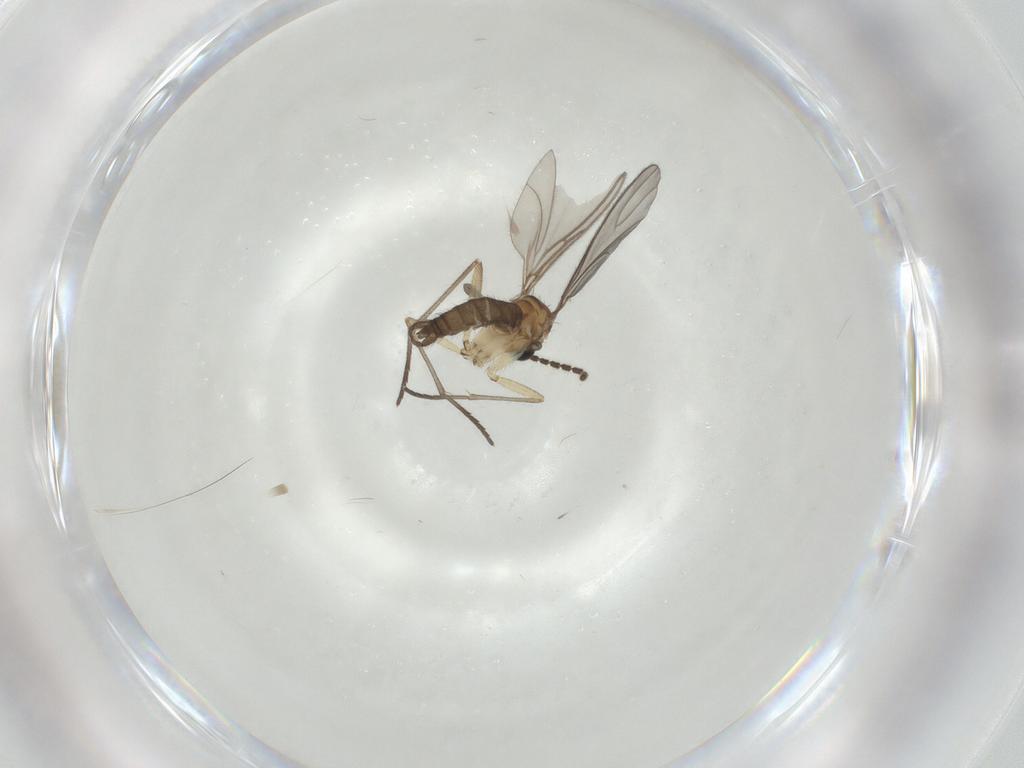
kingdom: Animalia
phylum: Arthropoda
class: Insecta
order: Diptera
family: Sciaridae
